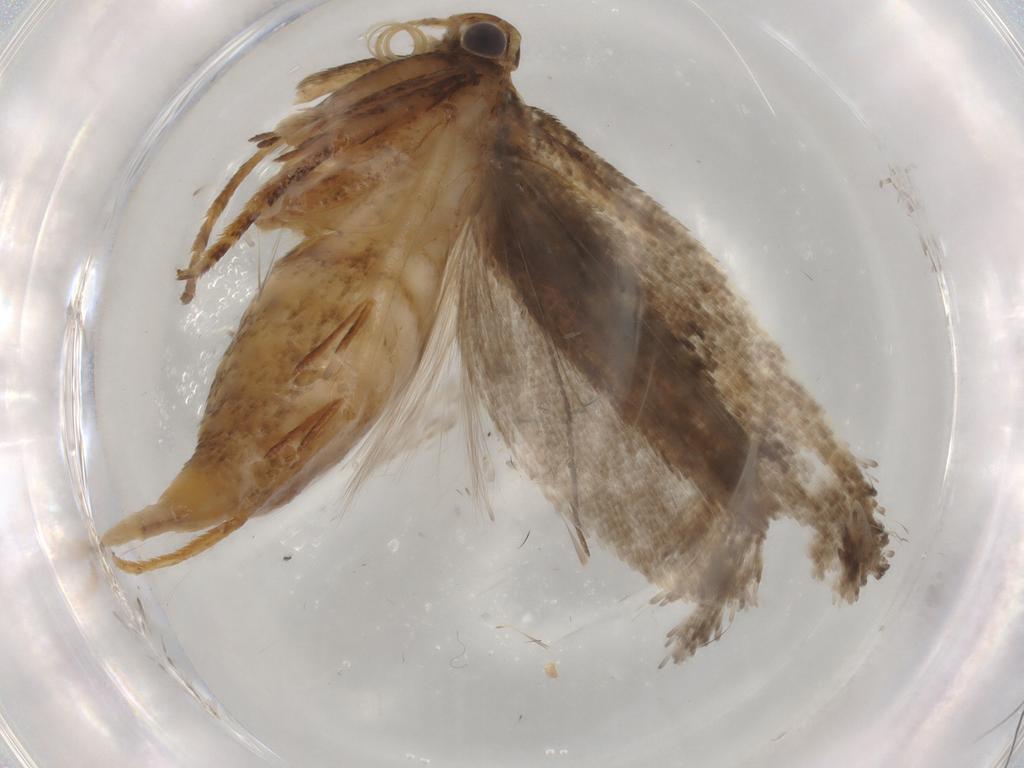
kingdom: Animalia
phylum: Arthropoda
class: Insecta
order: Lepidoptera
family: Gelechiidae
